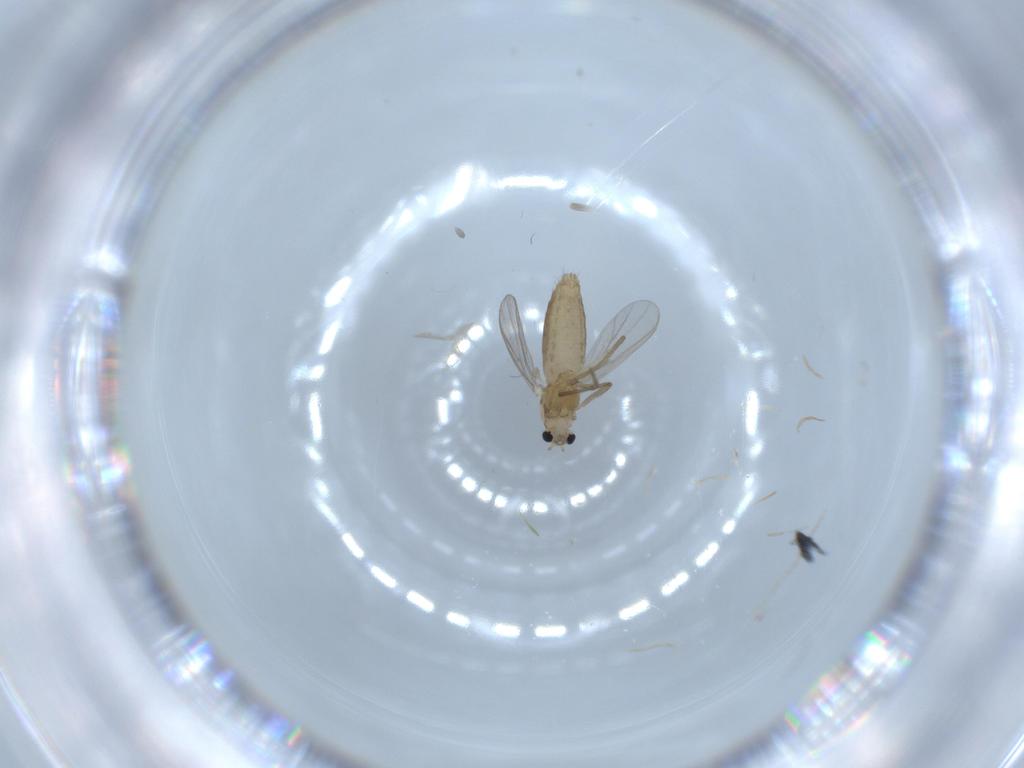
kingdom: Animalia
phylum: Arthropoda
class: Insecta
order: Diptera
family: Chironomidae
